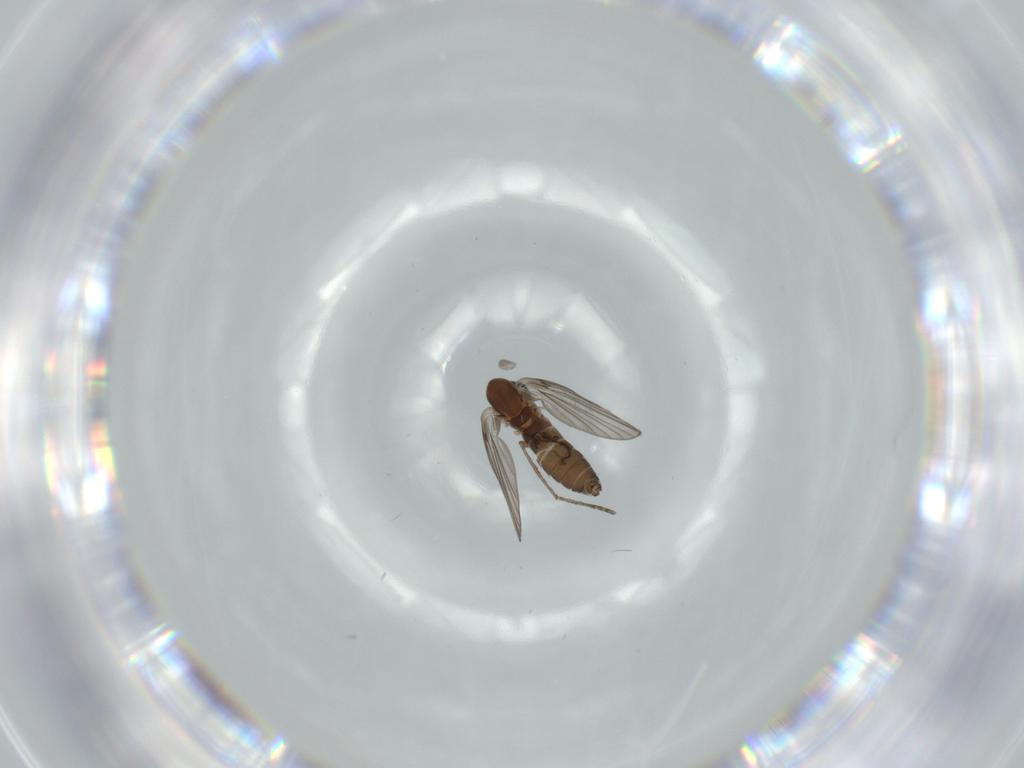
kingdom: Animalia
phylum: Arthropoda
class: Insecta
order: Diptera
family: Psychodidae
